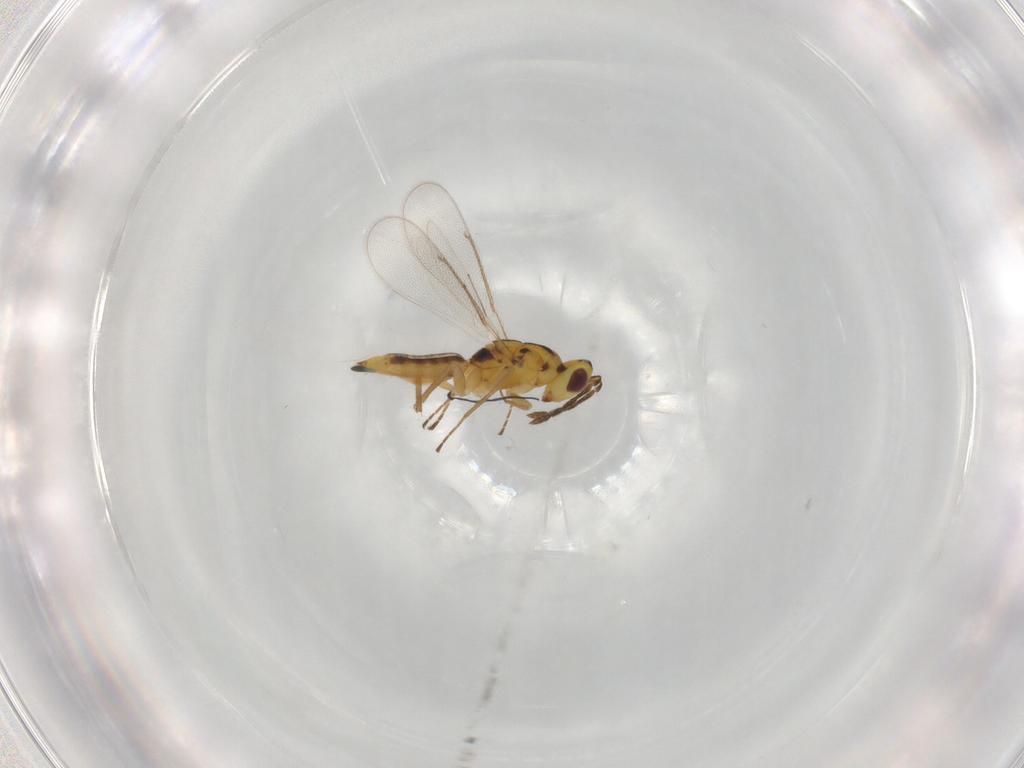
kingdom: Animalia
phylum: Arthropoda
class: Insecta
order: Hymenoptera
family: Eulophidae
